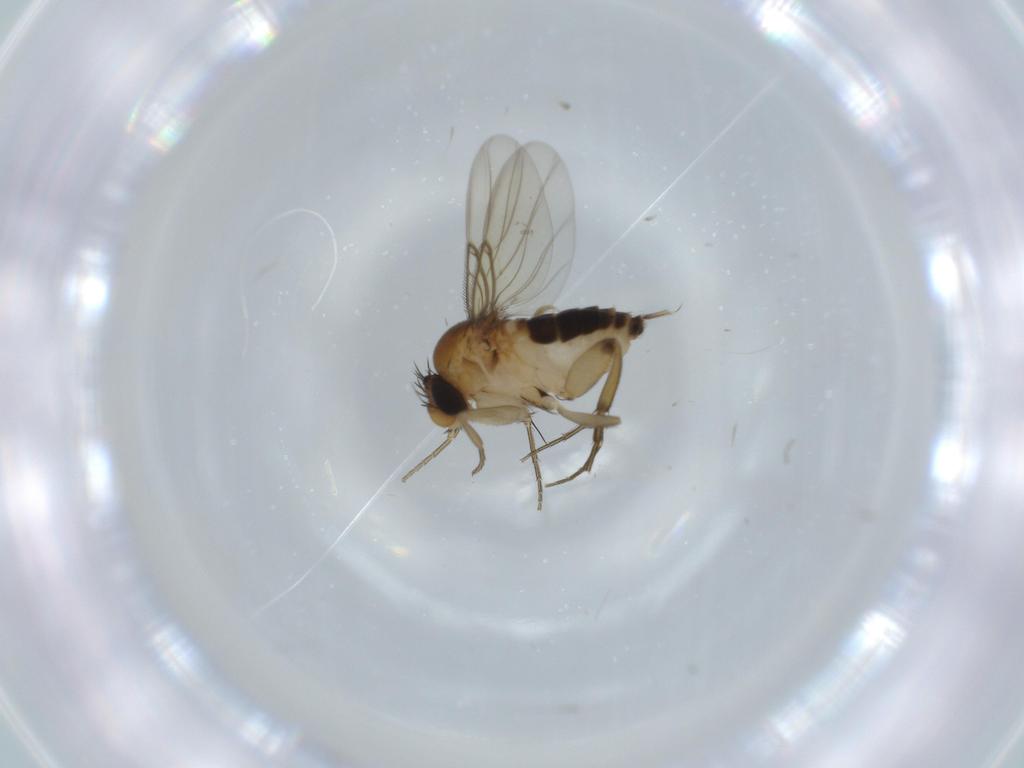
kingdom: Animalia
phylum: Arthropoda
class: Insecta
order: Diptera
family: Cecidomyiidae
